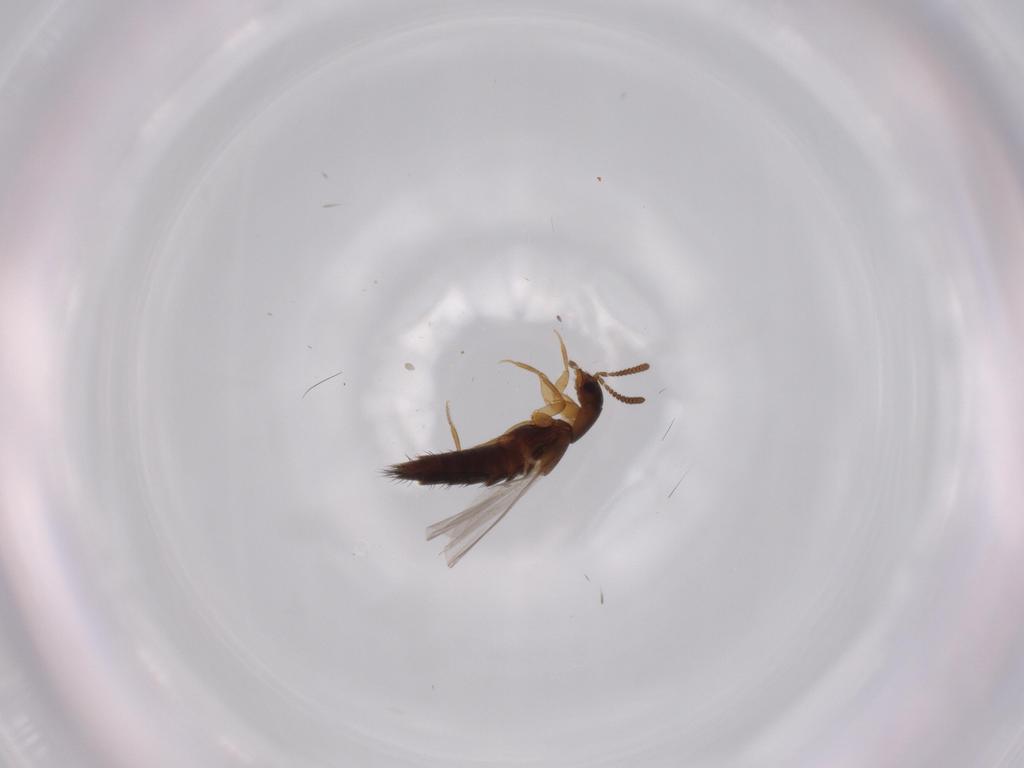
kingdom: Animalia
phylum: Arthropoda
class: Insecta
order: Coleoptera
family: Staphylinidae
